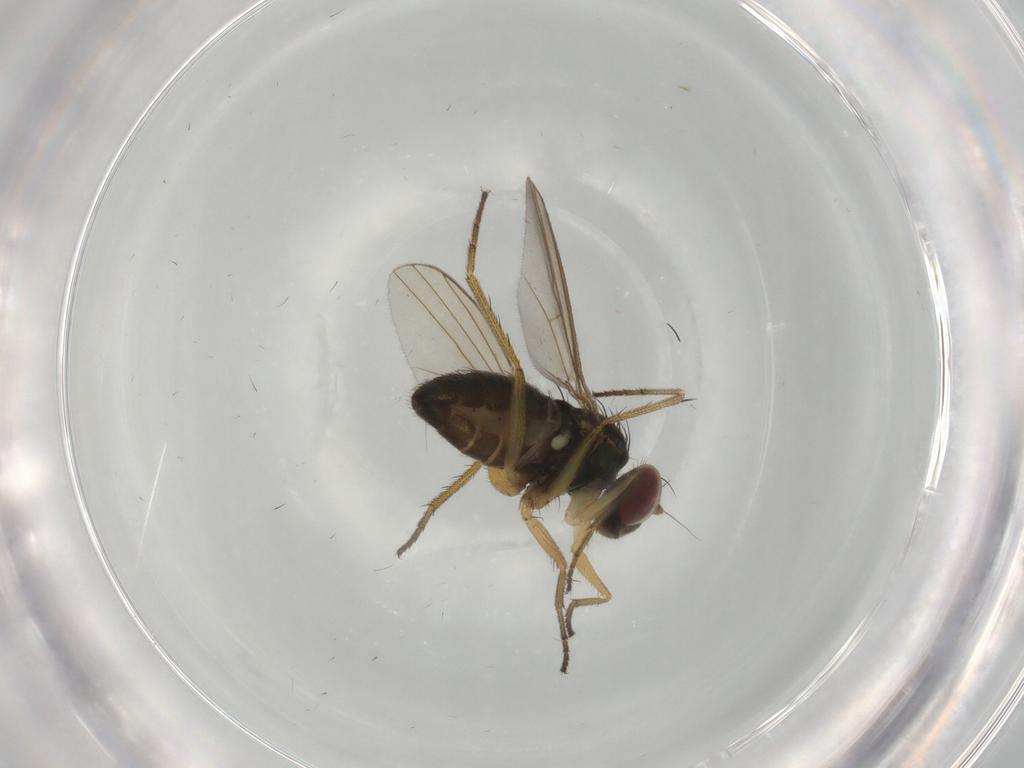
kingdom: Animalia
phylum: Arthropoda
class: Insecta
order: Diptera
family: Dolichopodidae
